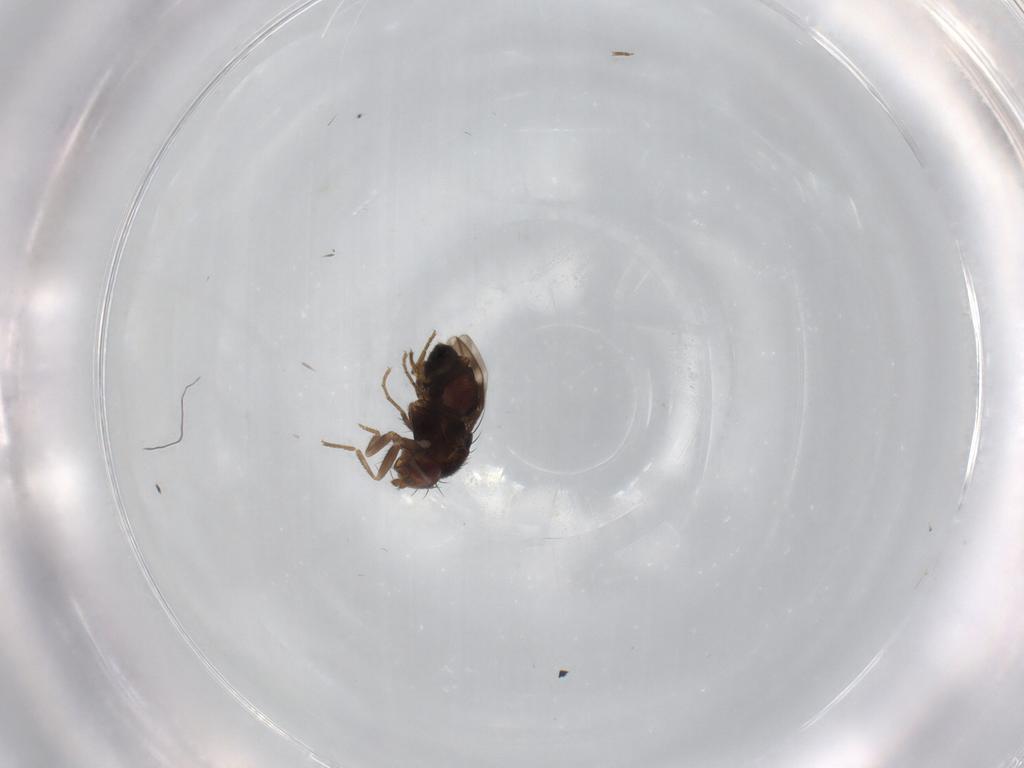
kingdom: Animalia
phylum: Arthropoda
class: Insecta
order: Diptera
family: Sphaeroceridae
